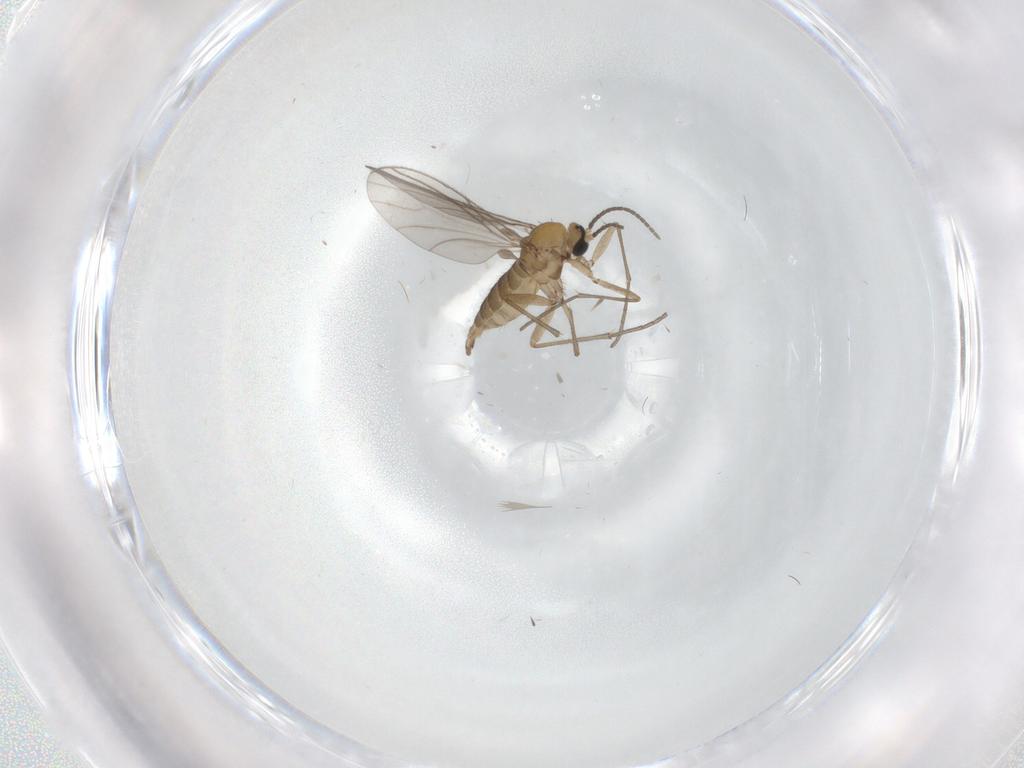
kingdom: Animalia
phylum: Arthropoda
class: Insecta
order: Diptera
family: Sciaridae
